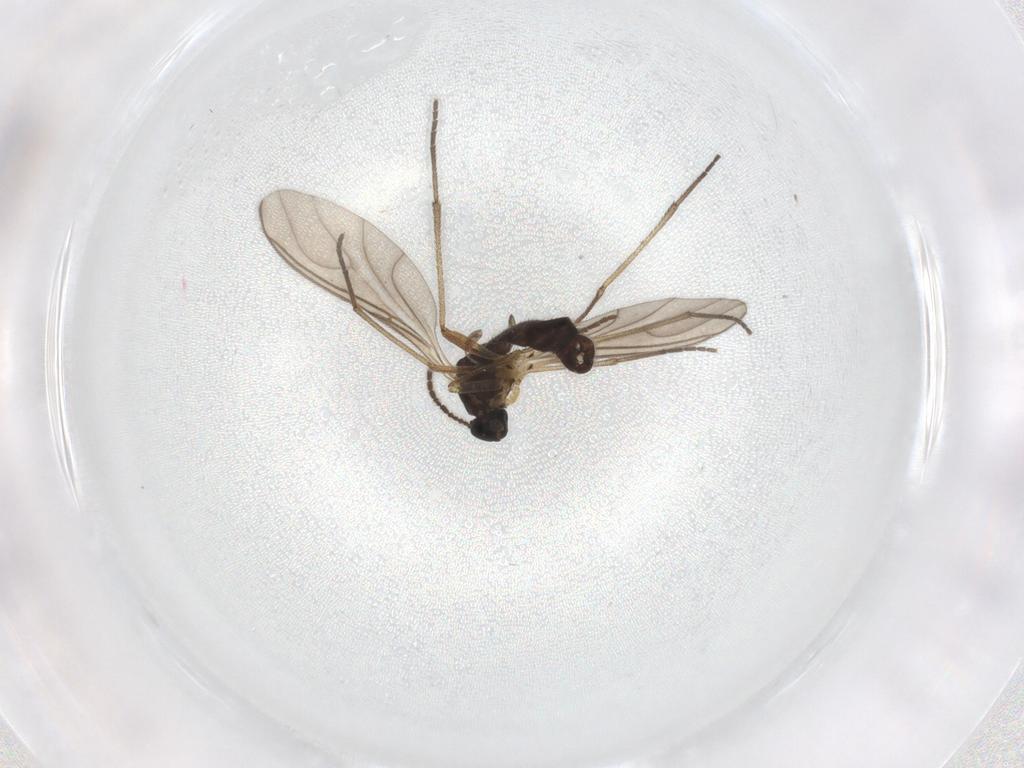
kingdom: Animalia
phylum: Arthropoda
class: Insecta
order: Diptera
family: Sciaridae
